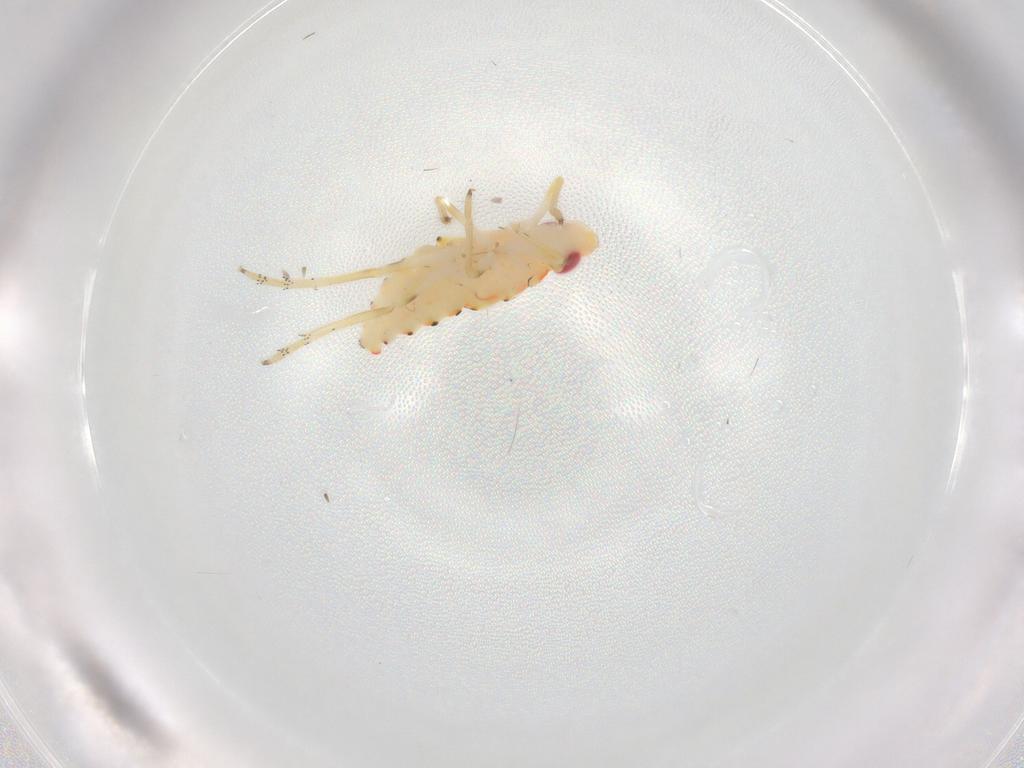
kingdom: Animalia
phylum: Arthropoda
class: Insecta
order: Hemiptera
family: Tropiduchidae
